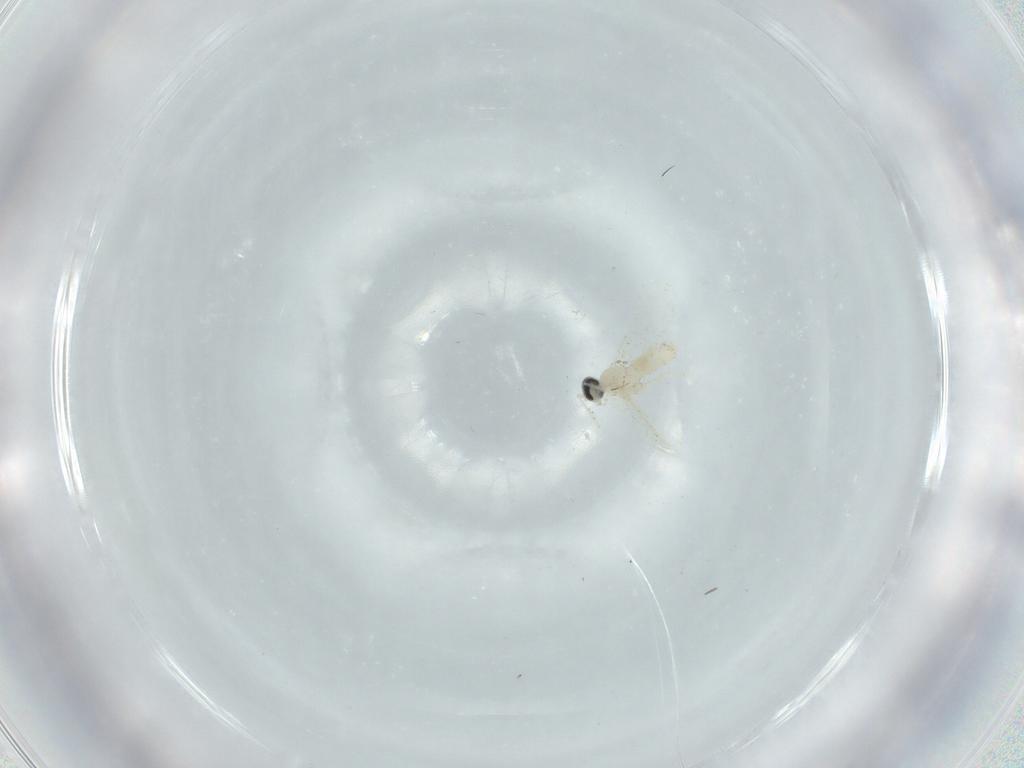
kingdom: Animalia
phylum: Arthropoda
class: Insecta
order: Diptera
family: Cecidomyiidae
